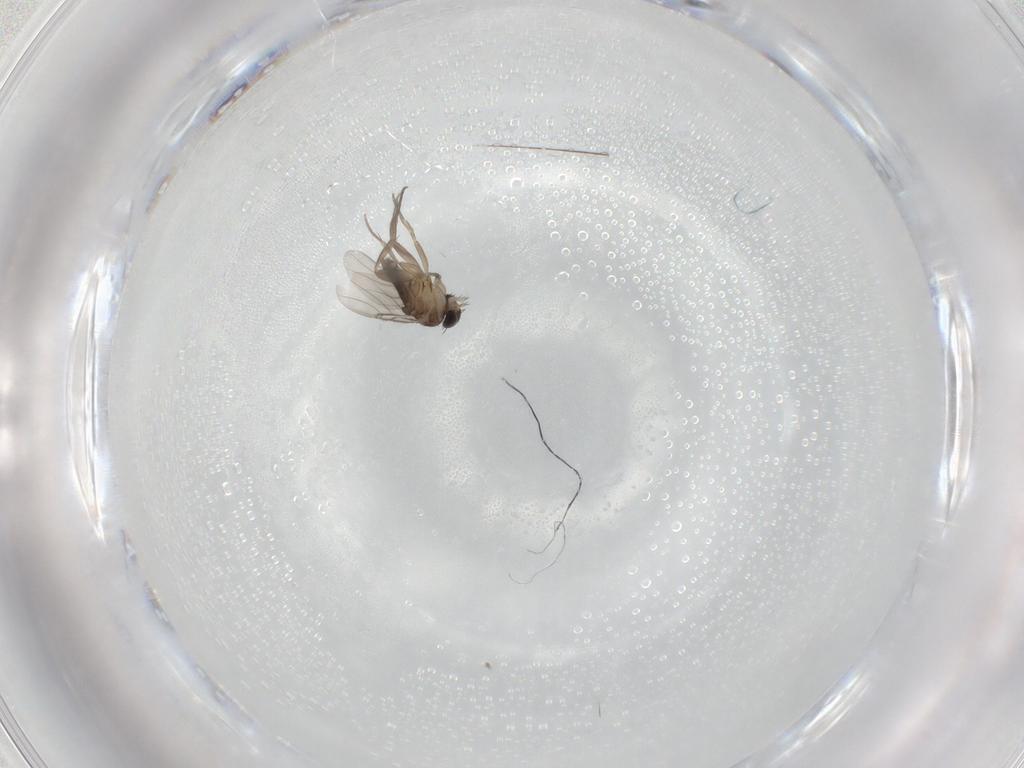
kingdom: Animalia
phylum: Arthropoda
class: Insecta
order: Diptera
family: Phoridae
